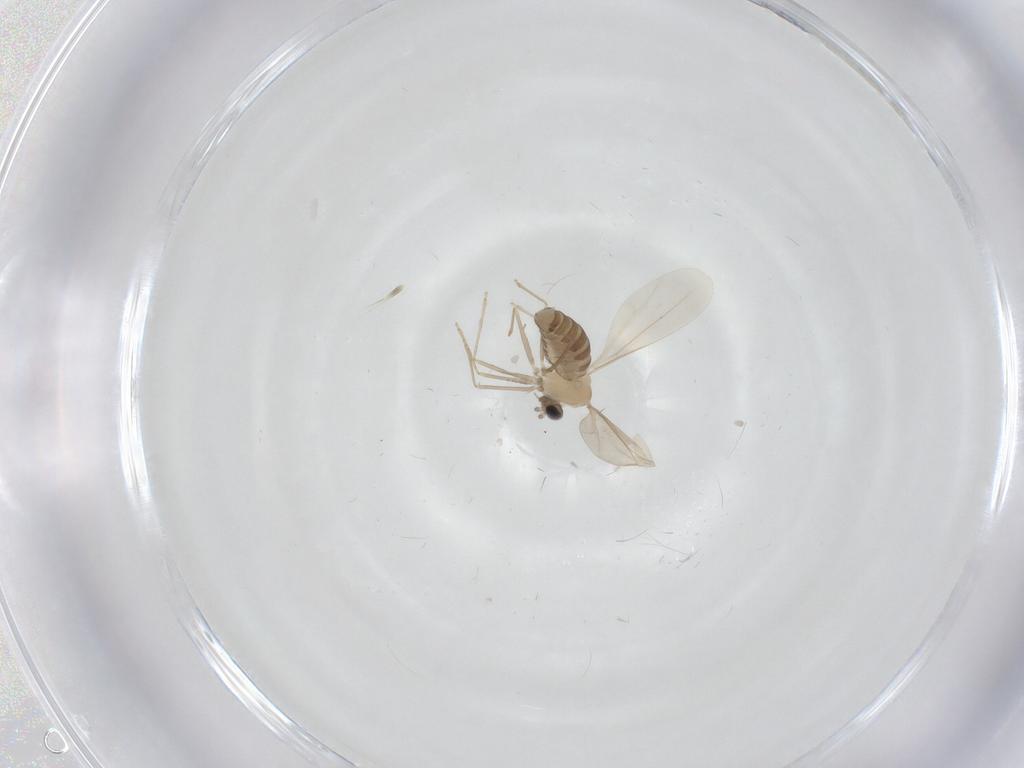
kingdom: Animalia
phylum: Arthropoda
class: Insecta
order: Diptera
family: Cecidomyiidae
